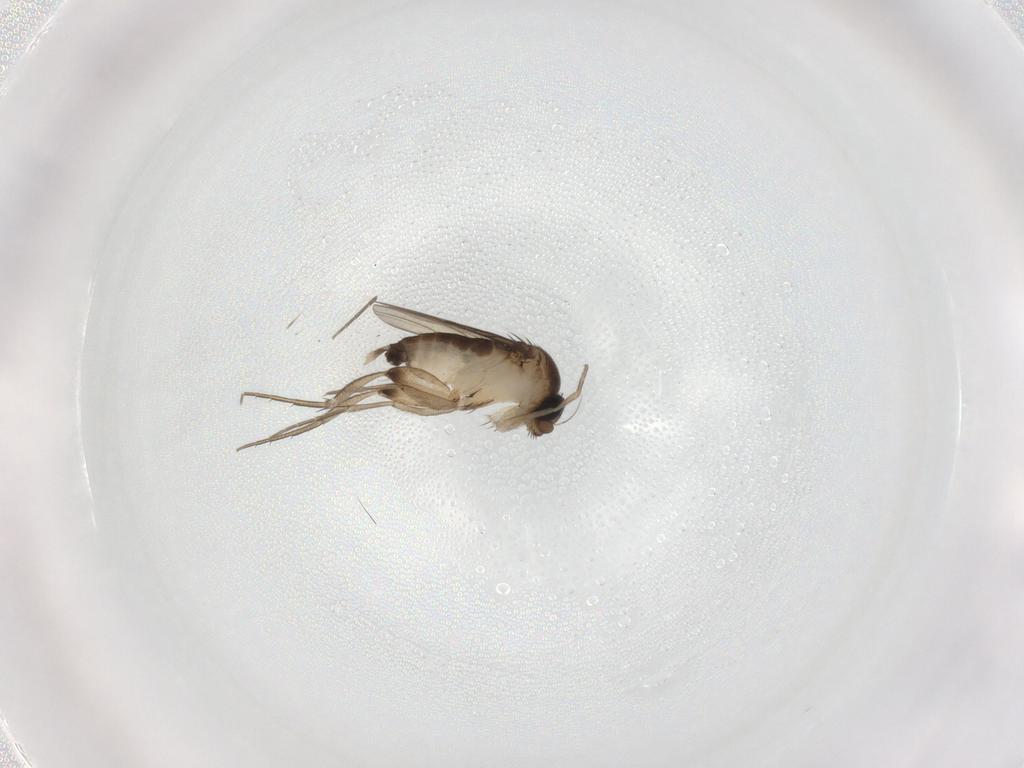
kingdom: Animalia
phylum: Arthropoda
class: Insecta
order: Diptera
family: Phoridae
